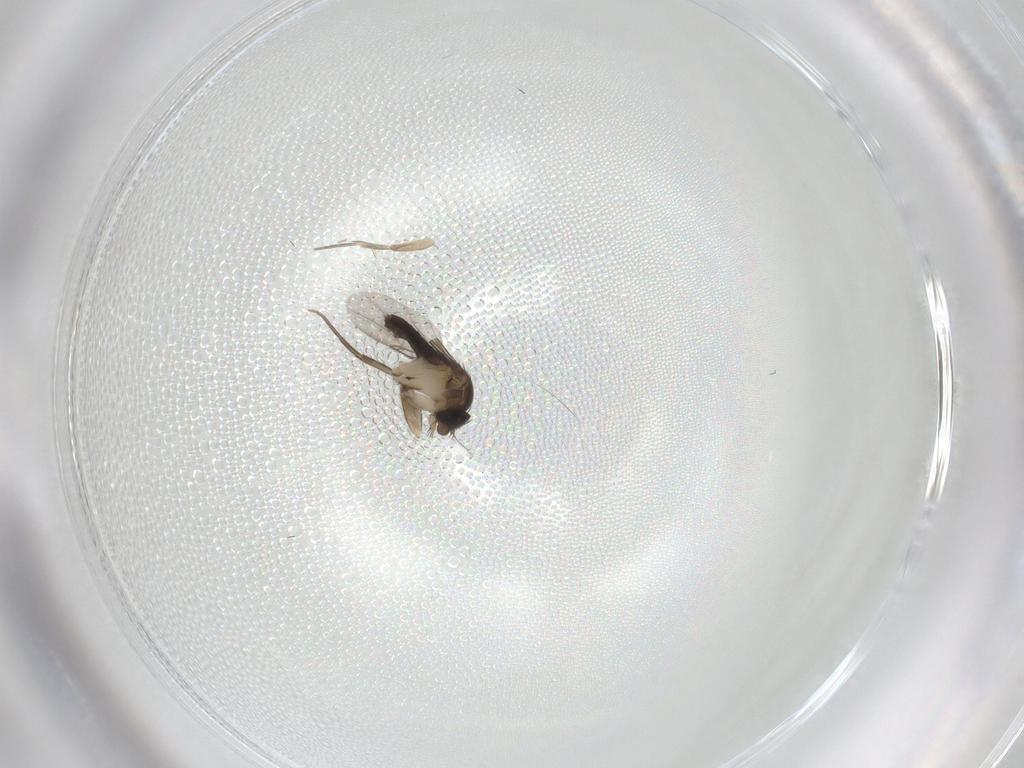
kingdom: Animalia
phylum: Arthropoda
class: Insecta
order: Diptera
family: Phoridae
